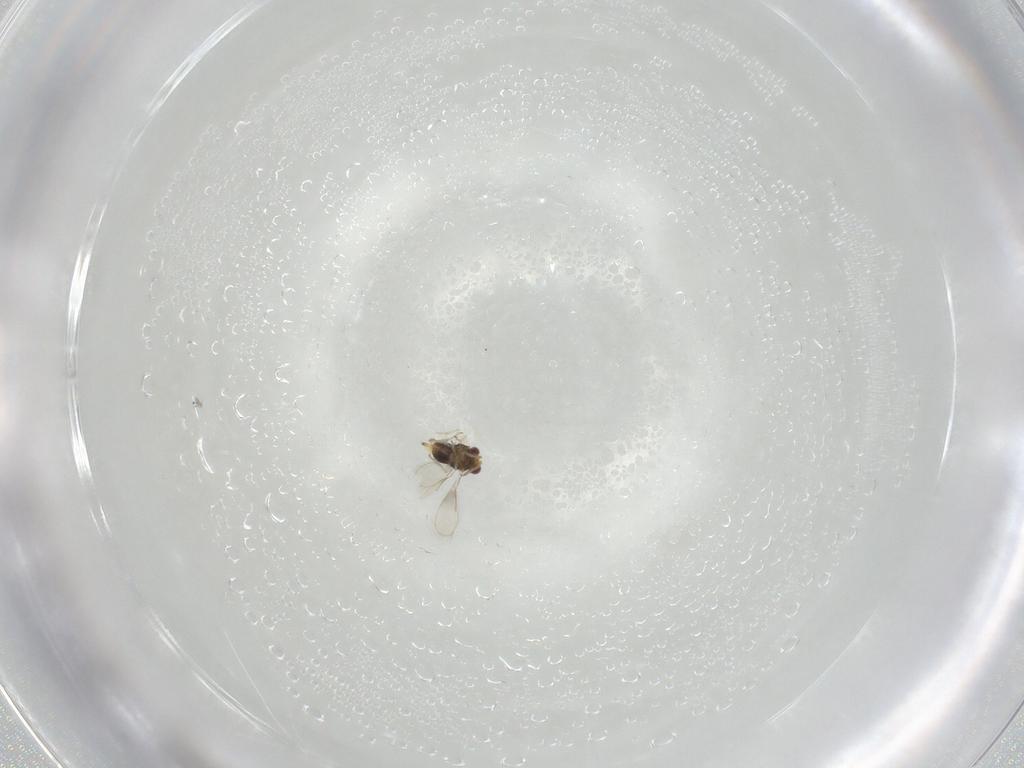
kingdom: Animalia
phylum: Arthropoda
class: Insecta
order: Hymenoptera
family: Aphelinidae
